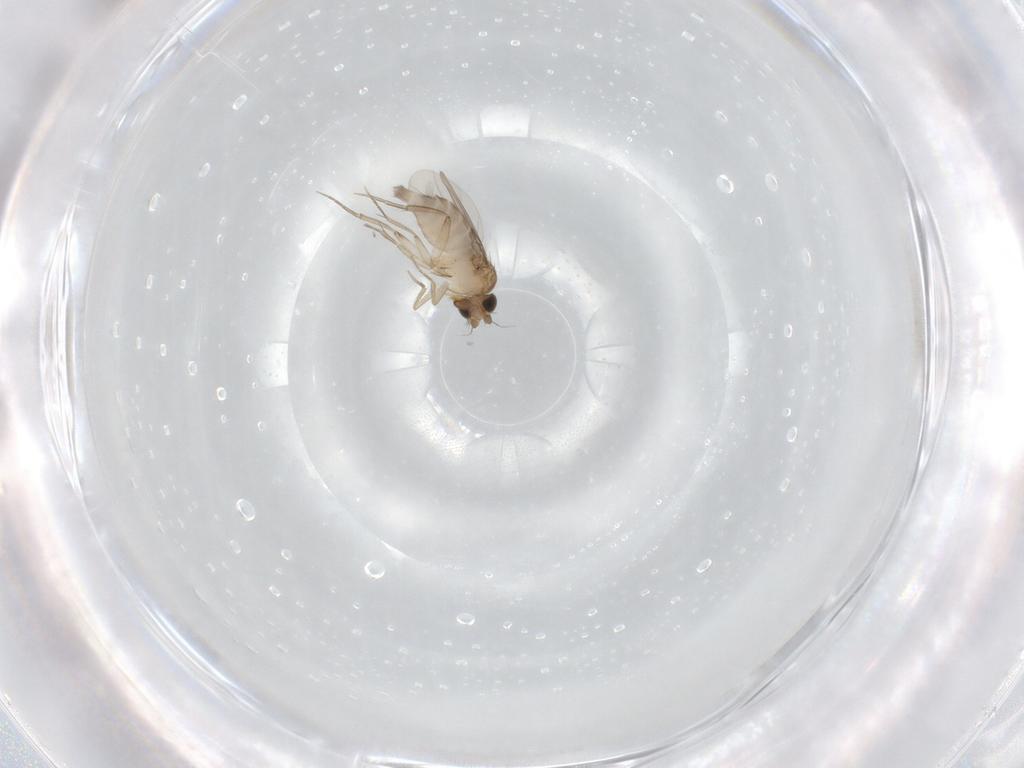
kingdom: Animalia
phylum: Arthropoda
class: Insecta
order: Diptera
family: Phoridae
